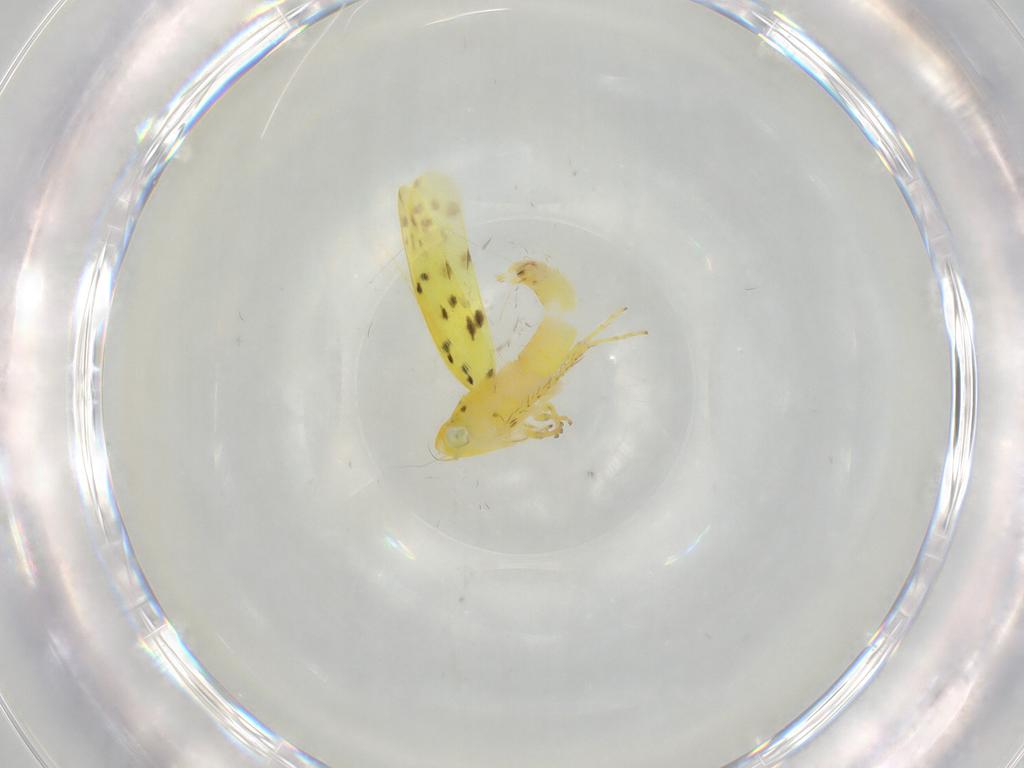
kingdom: Animalia
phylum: Arthropoda
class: Insecta
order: Hemiptera
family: Cicadellidae
